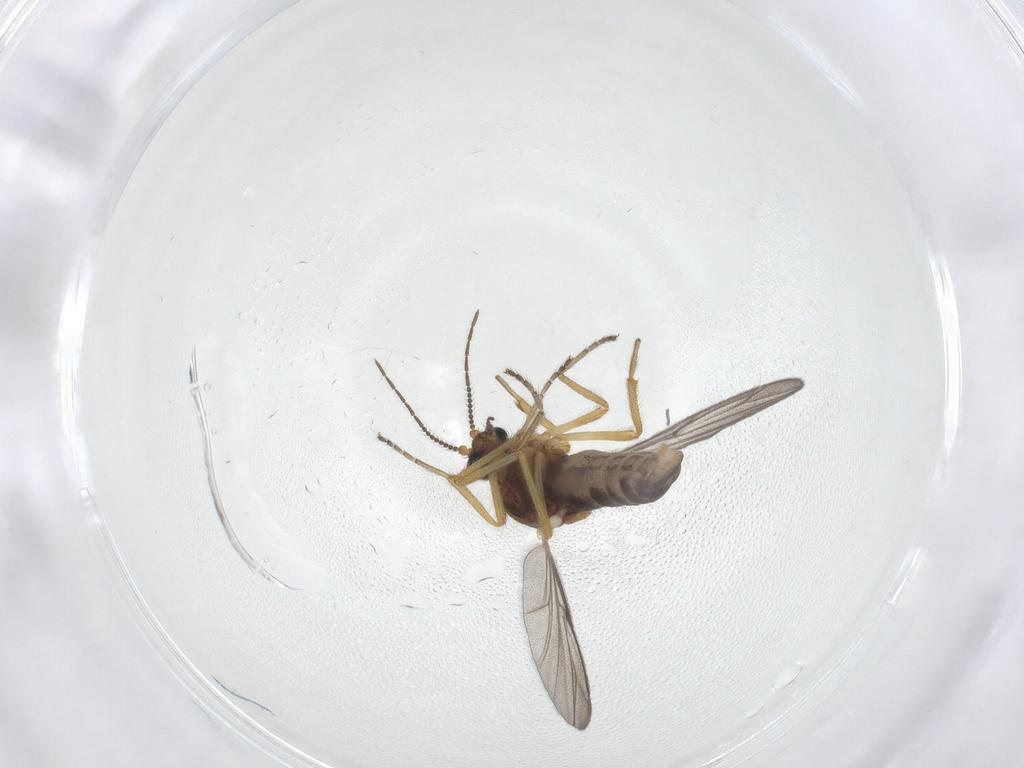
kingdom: Animalia
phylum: Arthropoda
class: Insecta
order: Diptera
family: Ceratopogonidae
